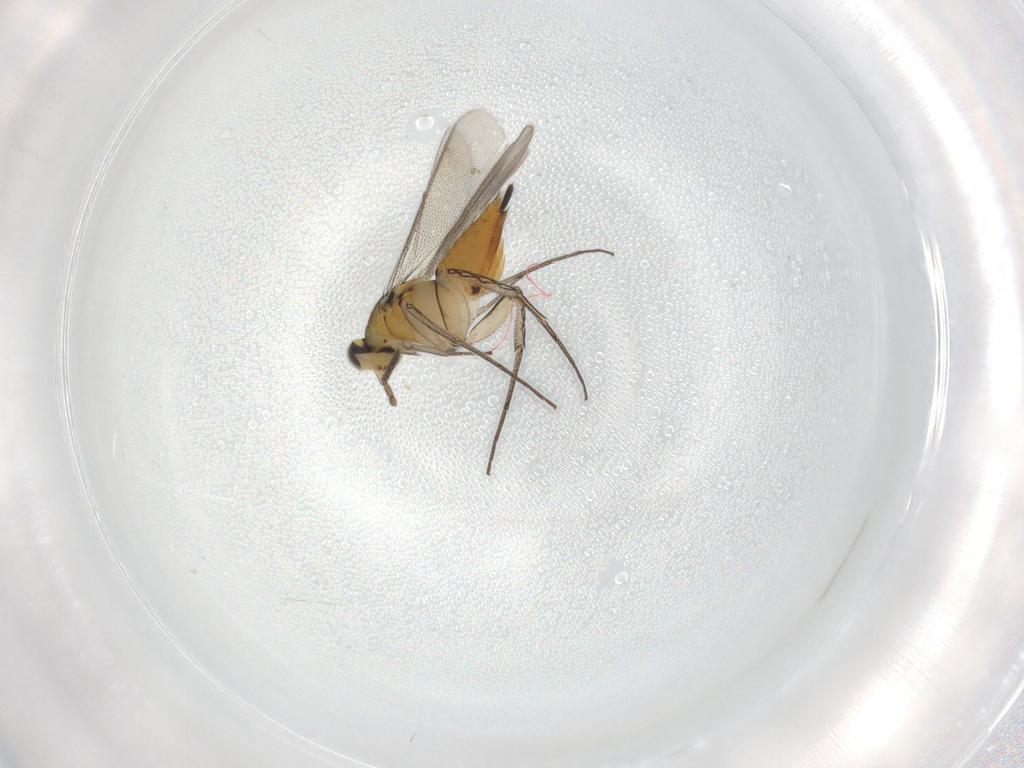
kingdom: Animalia
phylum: Arthropoda
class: Insecta
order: Hymenoptera
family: Eulophidae
